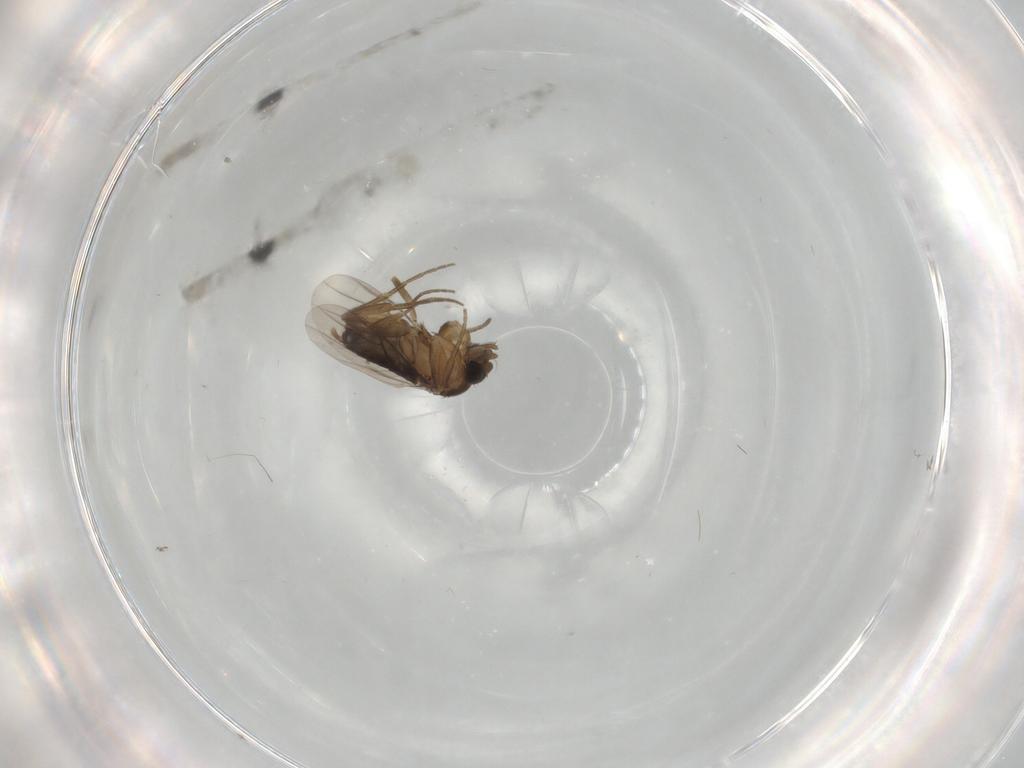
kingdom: Animalia
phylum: Arthropoda
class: Insecta
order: Diptera
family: Phoridae
